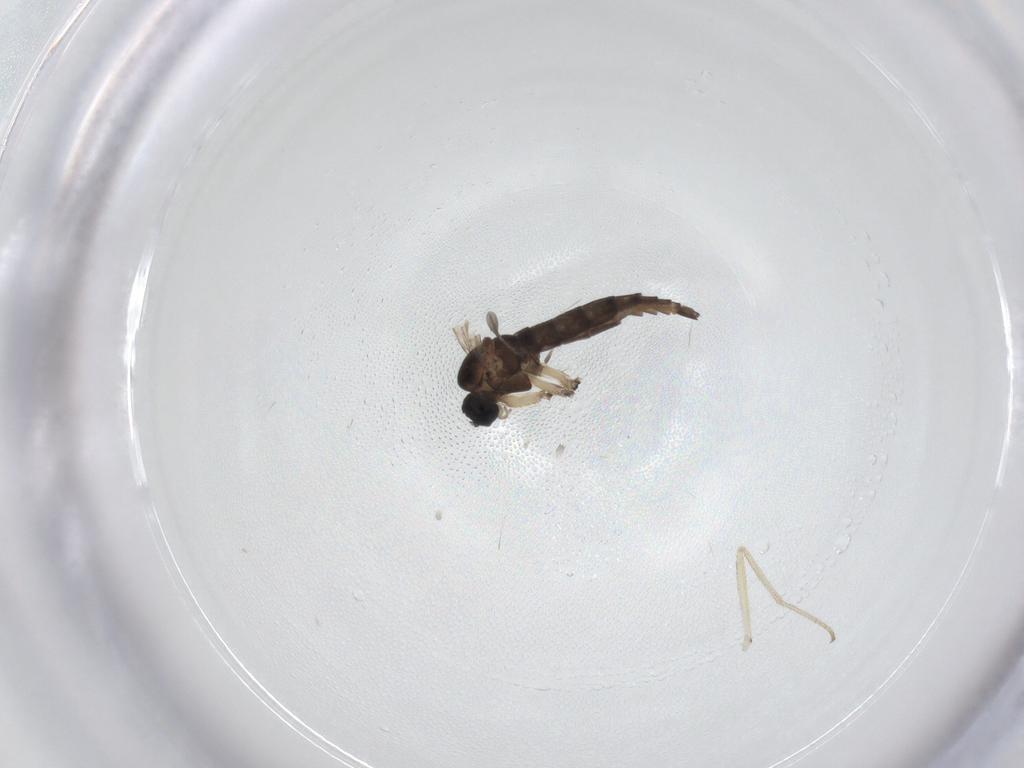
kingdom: Animalia
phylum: Arthropoda
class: Insecta
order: Diptera
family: Sciaridae
